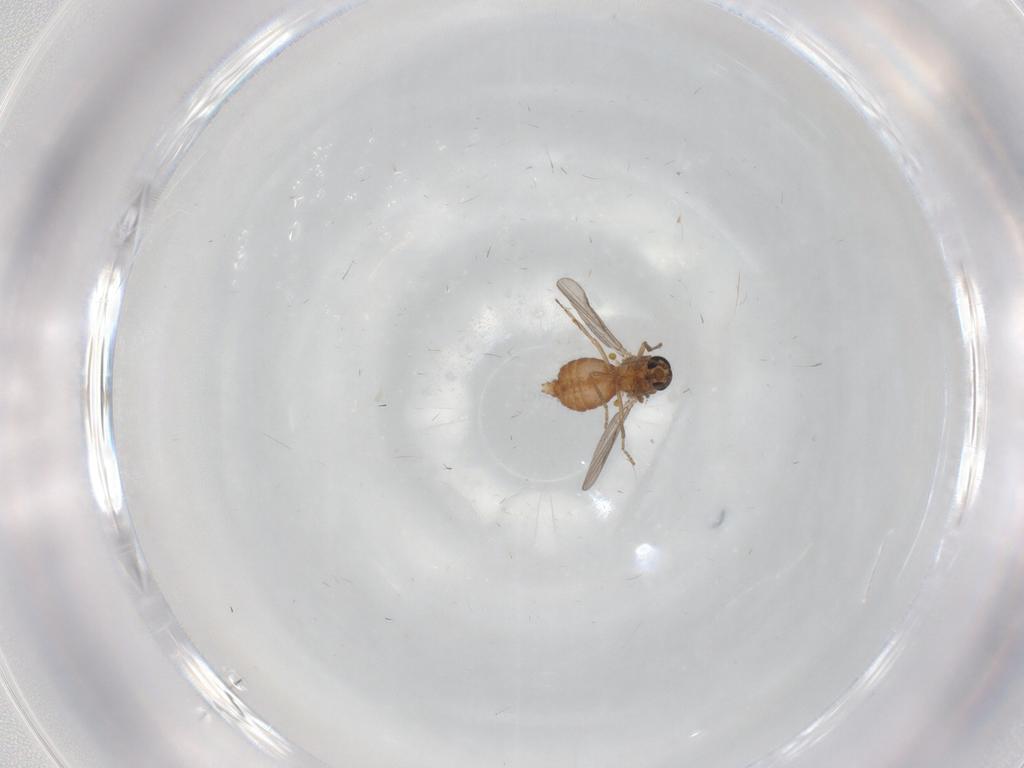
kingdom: Animalia
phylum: Arthropoda
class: Insecta
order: Diptera
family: Ceratopogonidae
